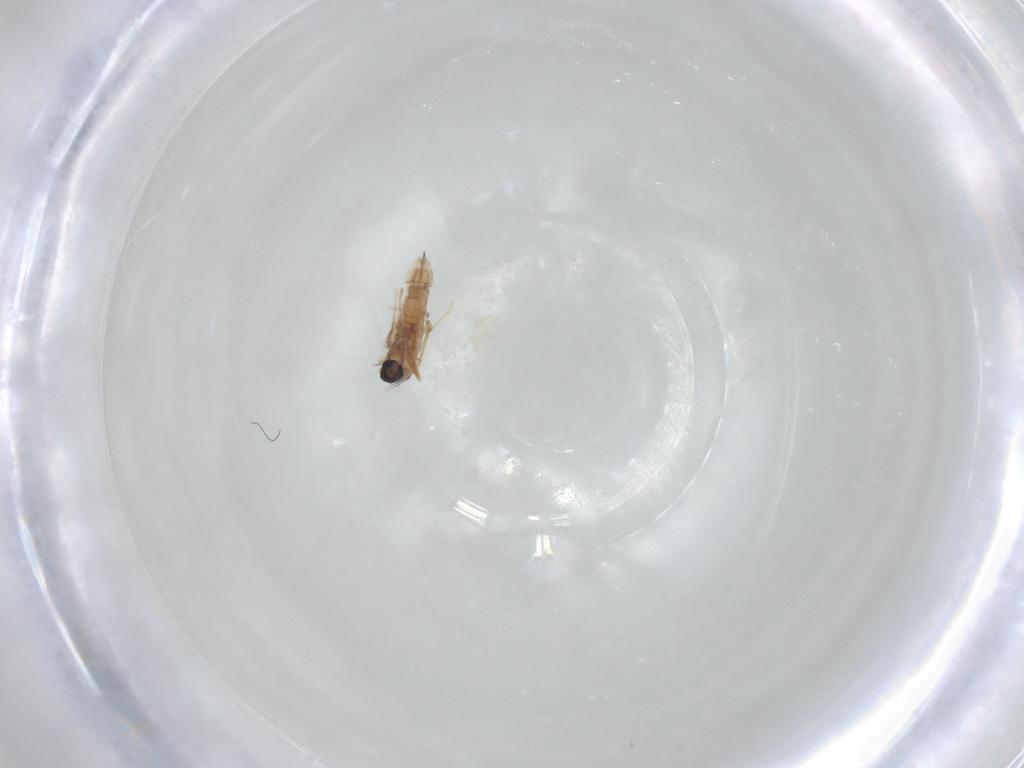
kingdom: Animalia
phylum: Arthropoda
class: Insecta
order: Diptera
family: Cecidomyiidae
